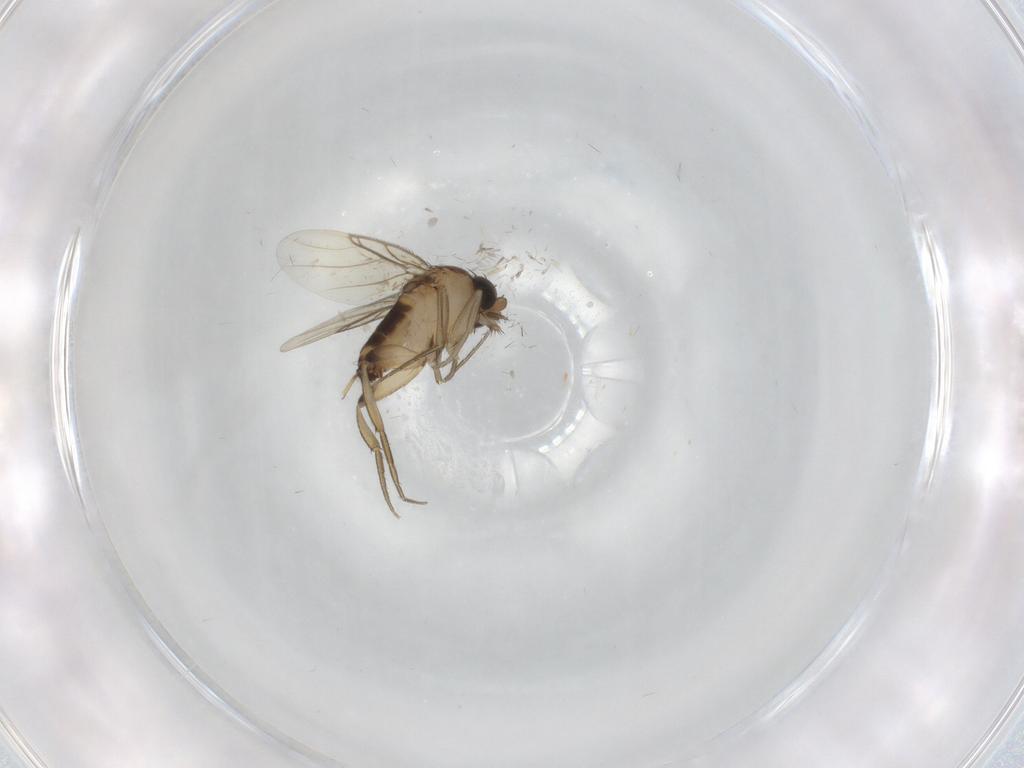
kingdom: Animalia
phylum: Arthropoda
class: Insecta
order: Diptera
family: Phoridae
